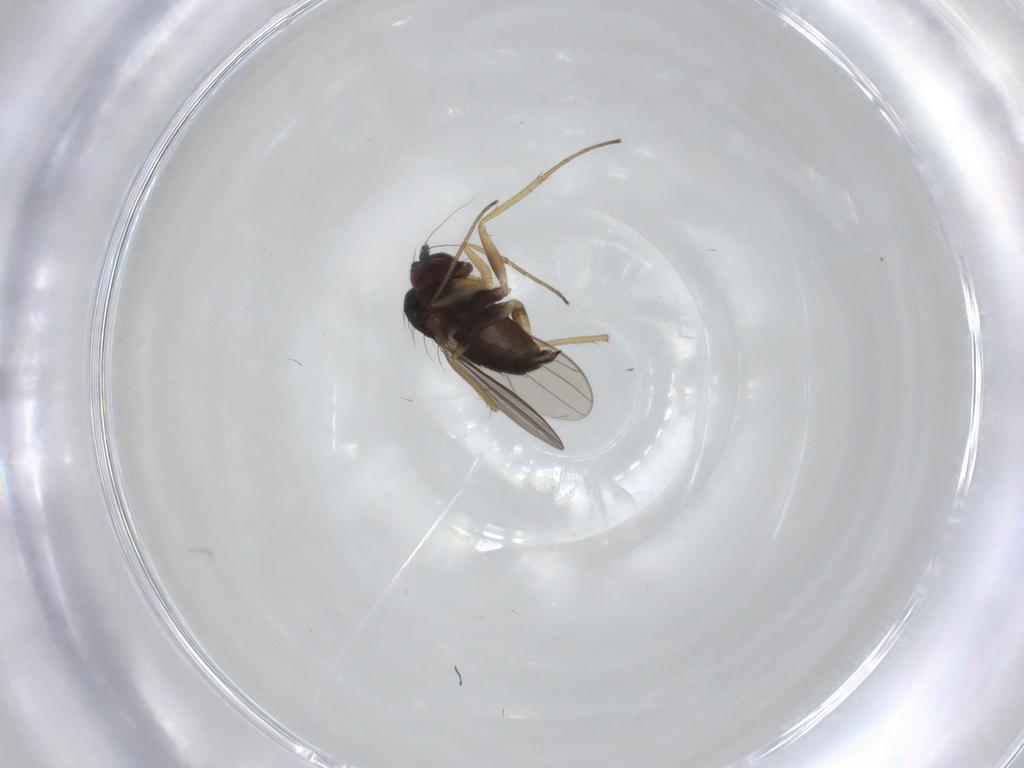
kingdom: Animalia
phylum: Arthropoda
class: Insecta
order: Diptera
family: Dolichopodidae
